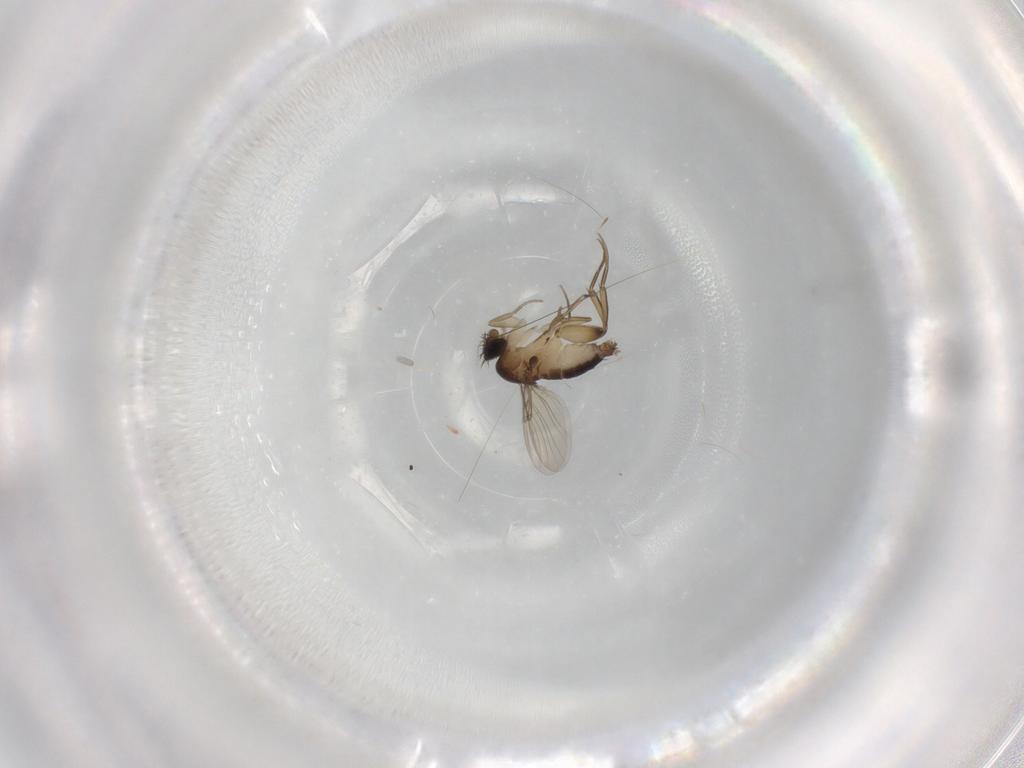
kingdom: Animalia
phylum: Arthropoda
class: Insecta
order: Diptera
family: Phoridae
